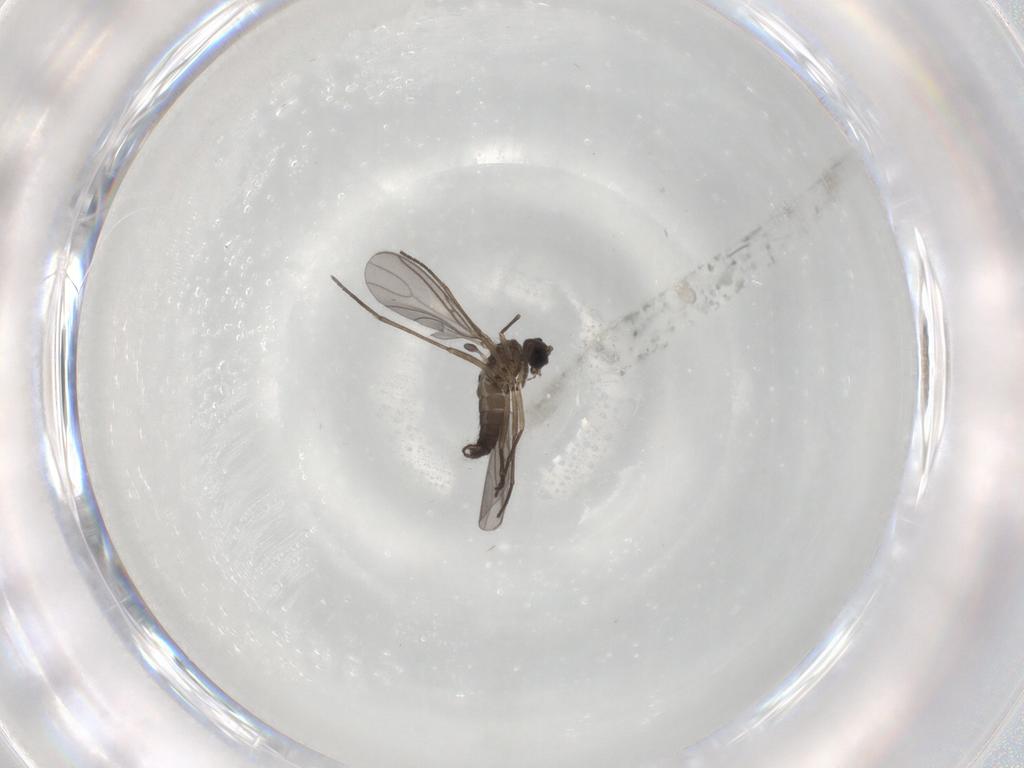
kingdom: Animalia
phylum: Arthropoda
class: Insecta
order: Diptera
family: Sciaridae
